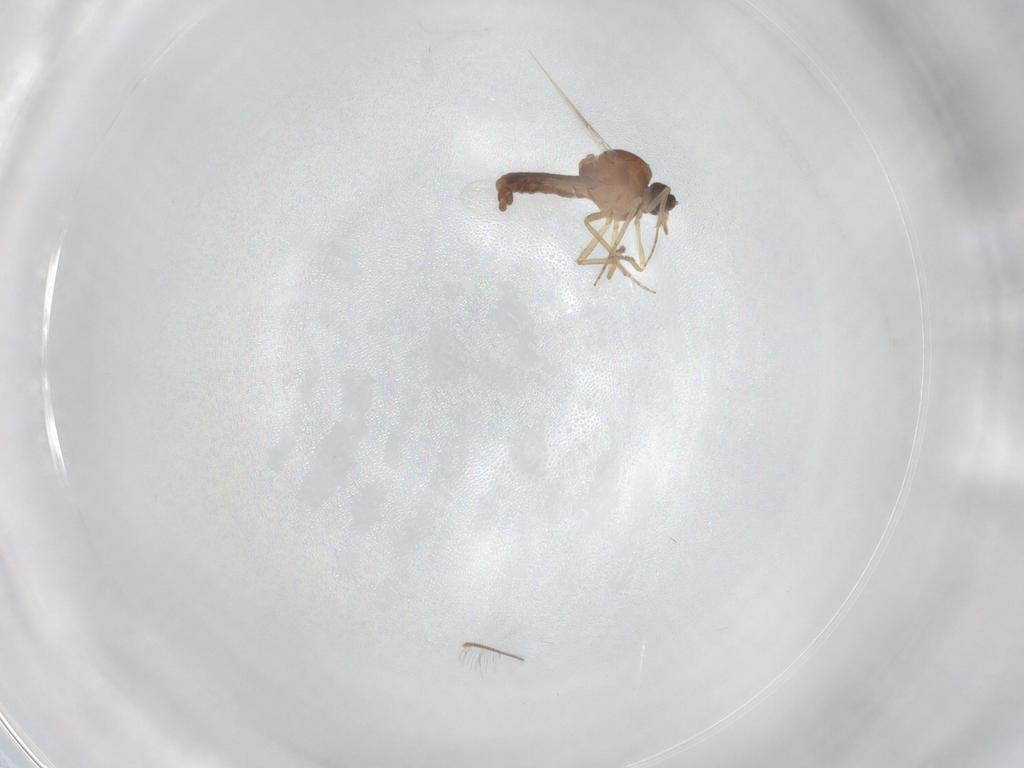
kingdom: Animalia
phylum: Arthropoda
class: Insecta
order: Diptera
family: Ceratopogonidae
